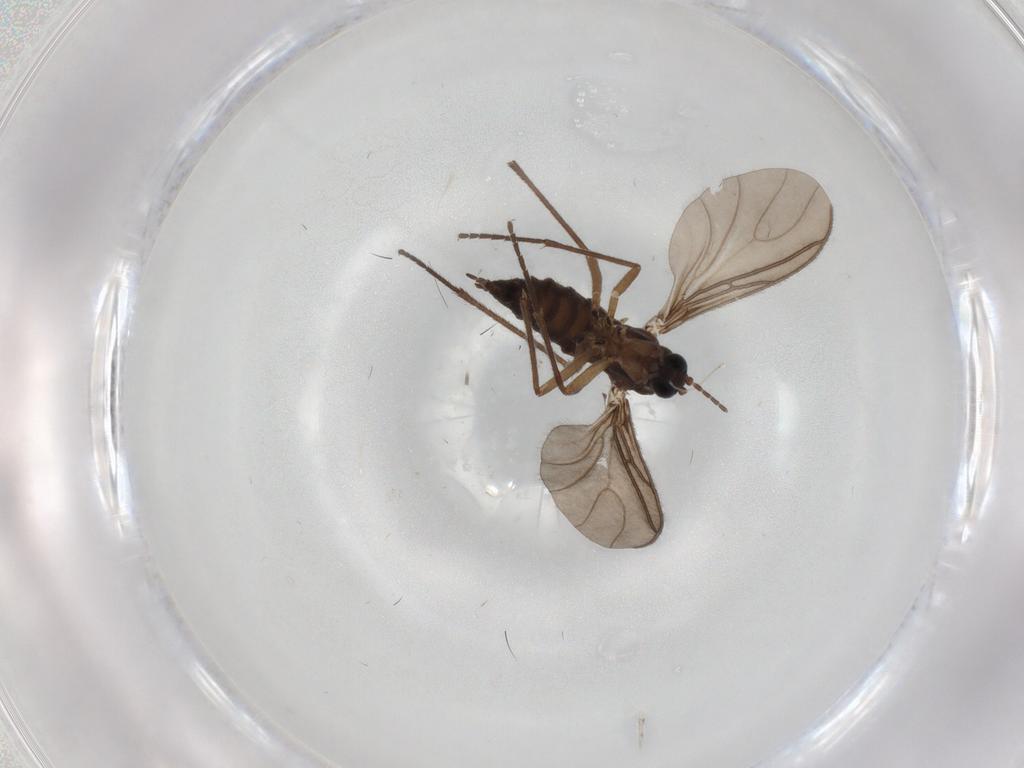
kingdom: Animalia
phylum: Arthropoda
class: Insecta
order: Diptera
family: Sciaridae
